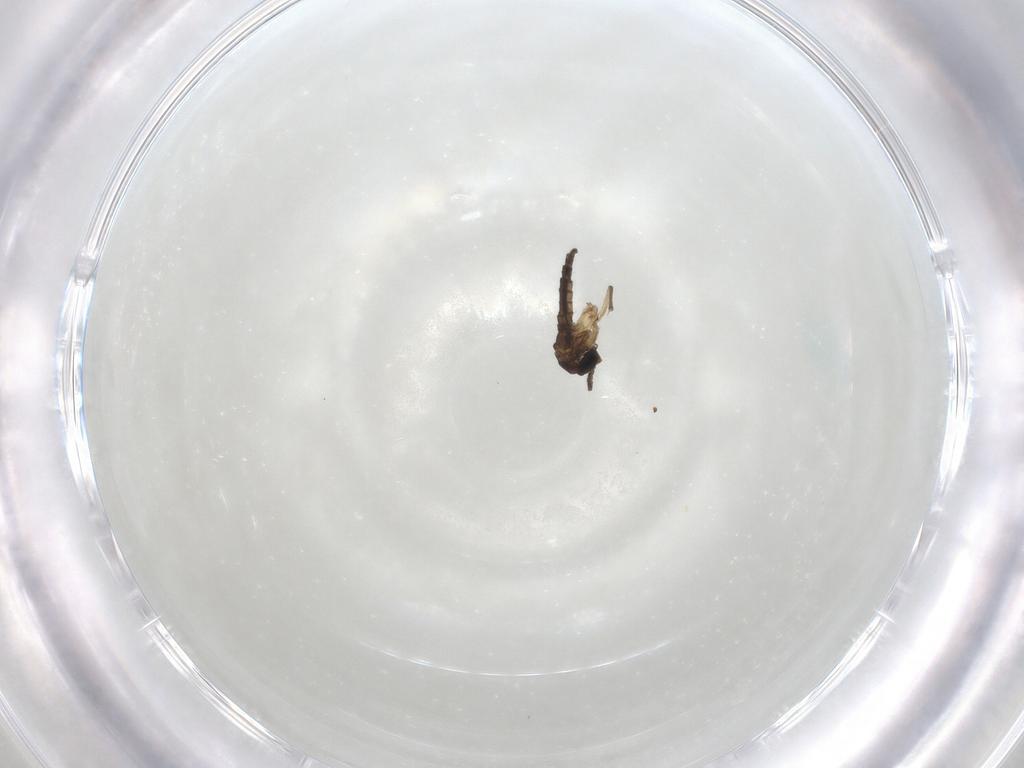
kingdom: Animalia
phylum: Arthropoda
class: Insecta
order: Diptera
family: Sciaridae
